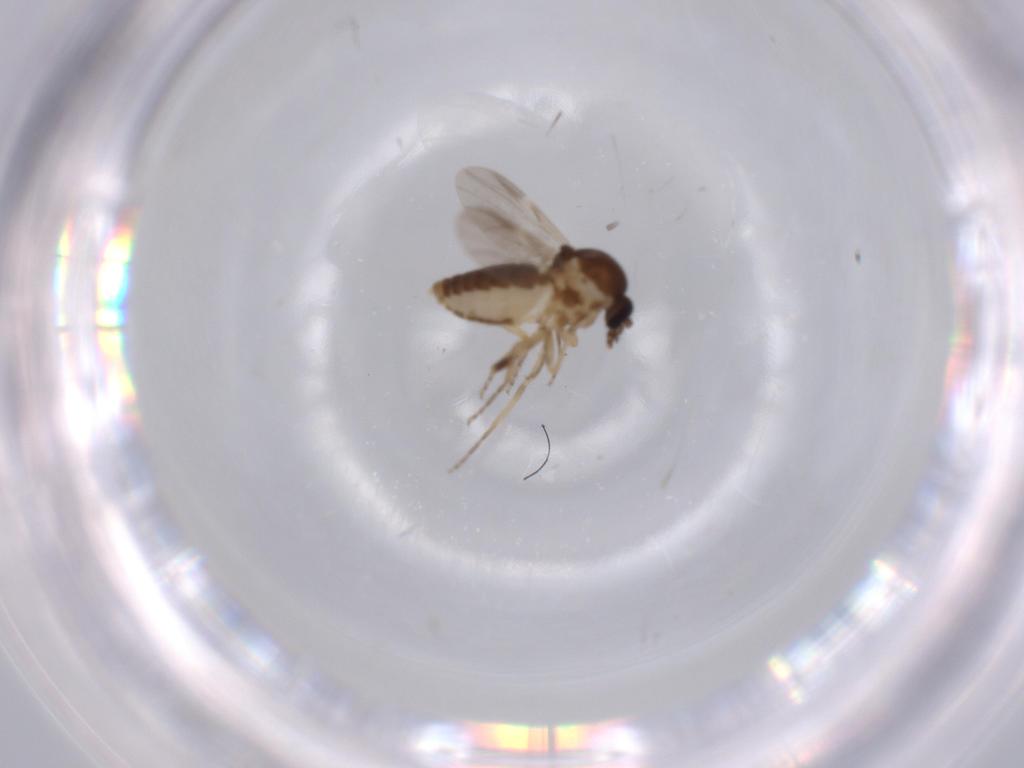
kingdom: Animalia
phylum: Arthropoda
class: Insecta
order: Diptera
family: Ceratopogonidae
